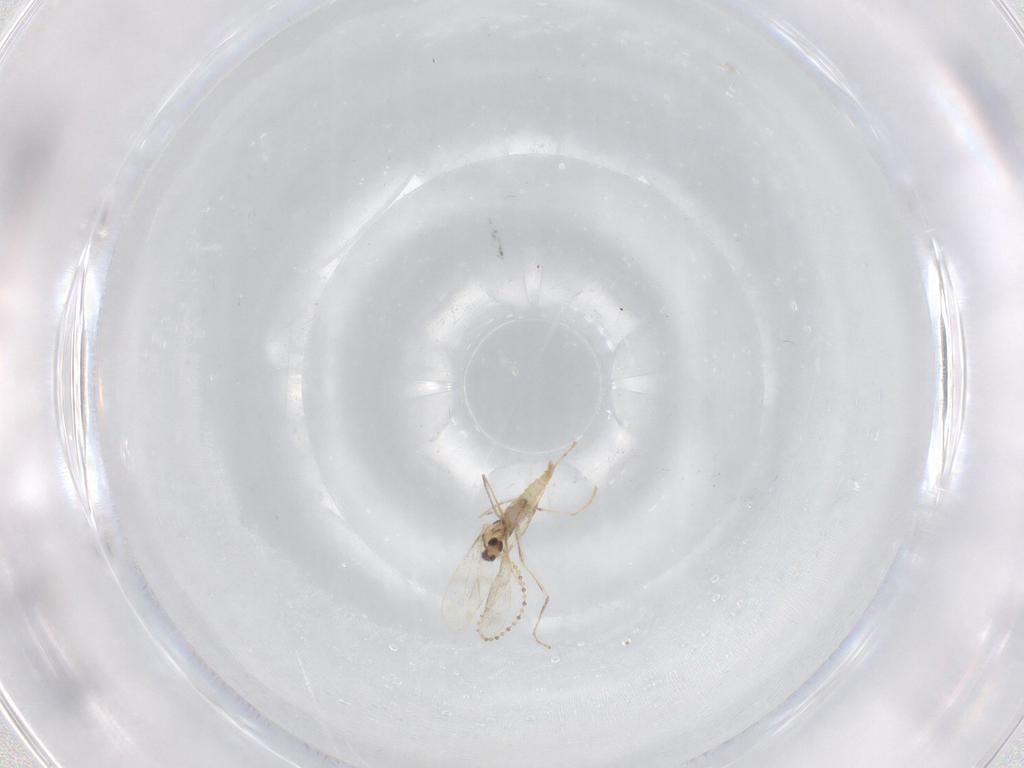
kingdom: Animalia
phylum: Arthropoda
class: Insecta
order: Diptera
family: Cecidomyiidae
